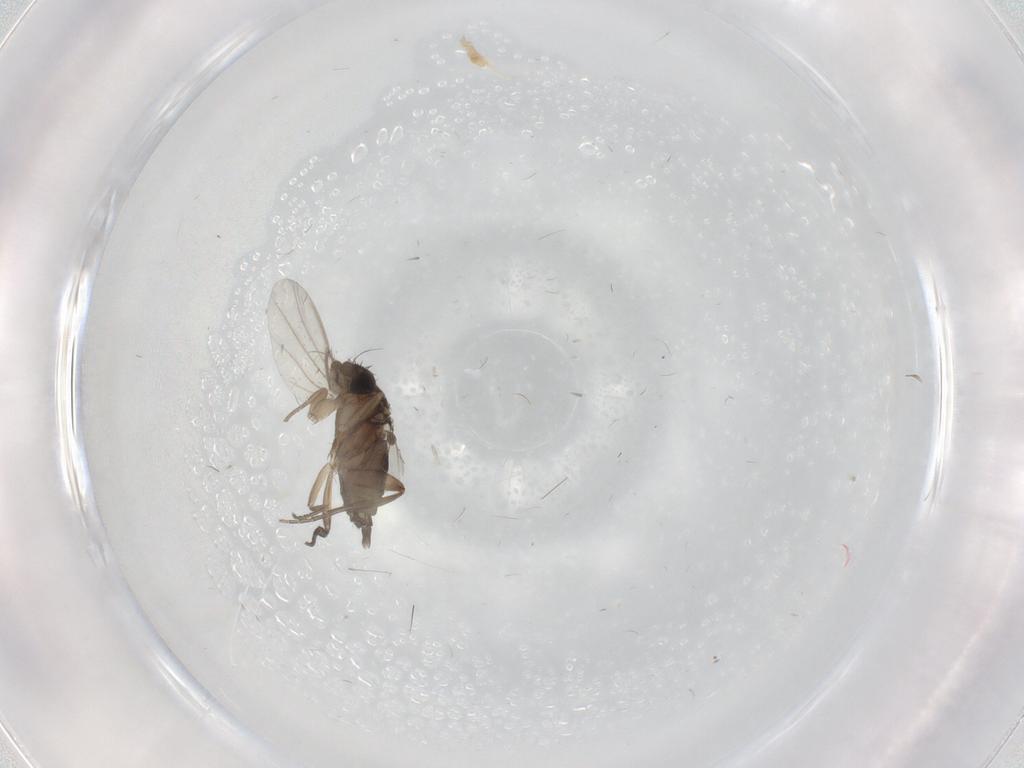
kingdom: Animalia
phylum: Arthropoda
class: Insecta
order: Diptera
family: Phoridae
